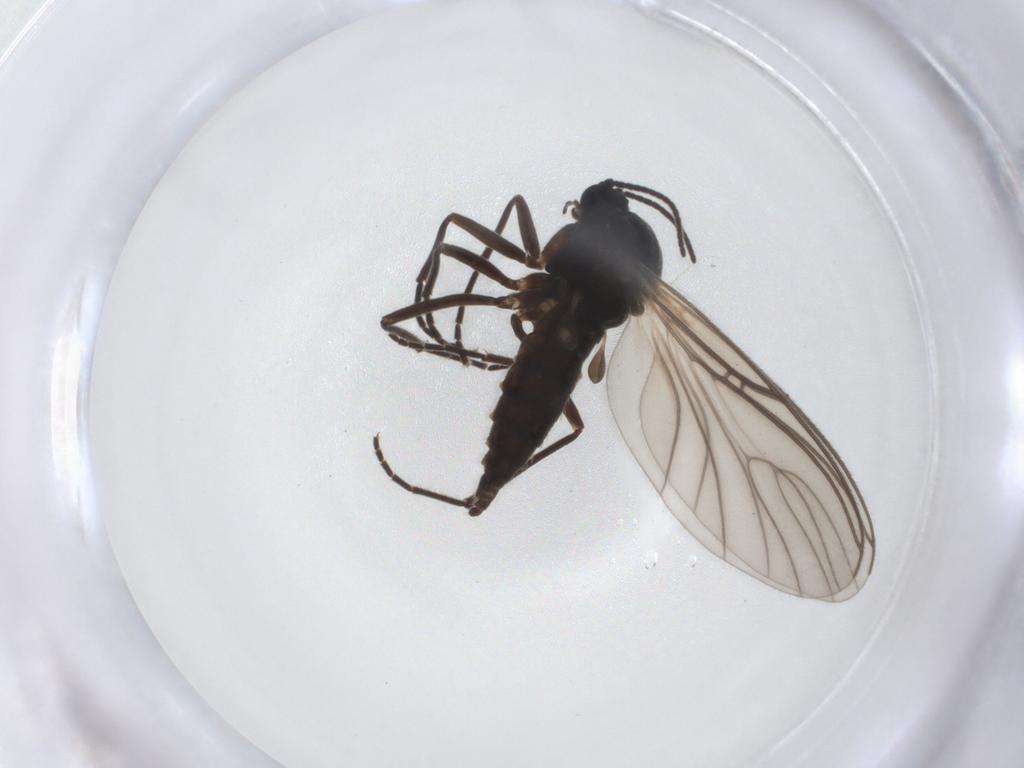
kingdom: Animalia
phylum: Arthropoda
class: Insecta
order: Diptera
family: Sciaridae
